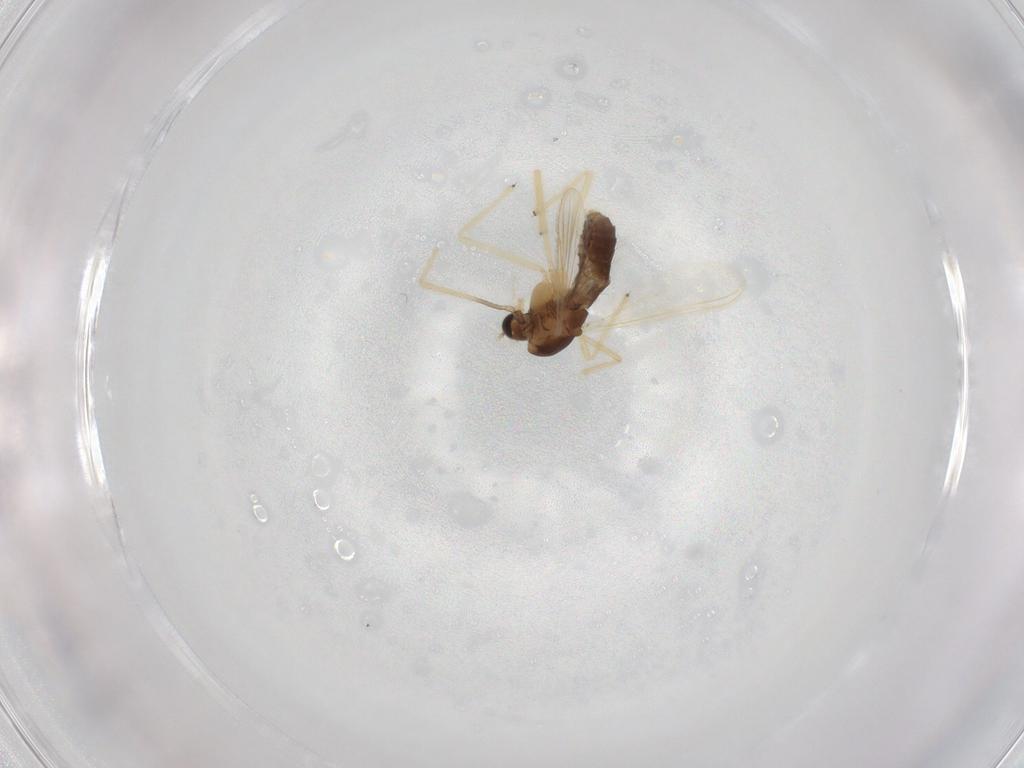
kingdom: Animalia
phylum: Arthropoda
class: Insecta
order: Diptera
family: Chironomidae
